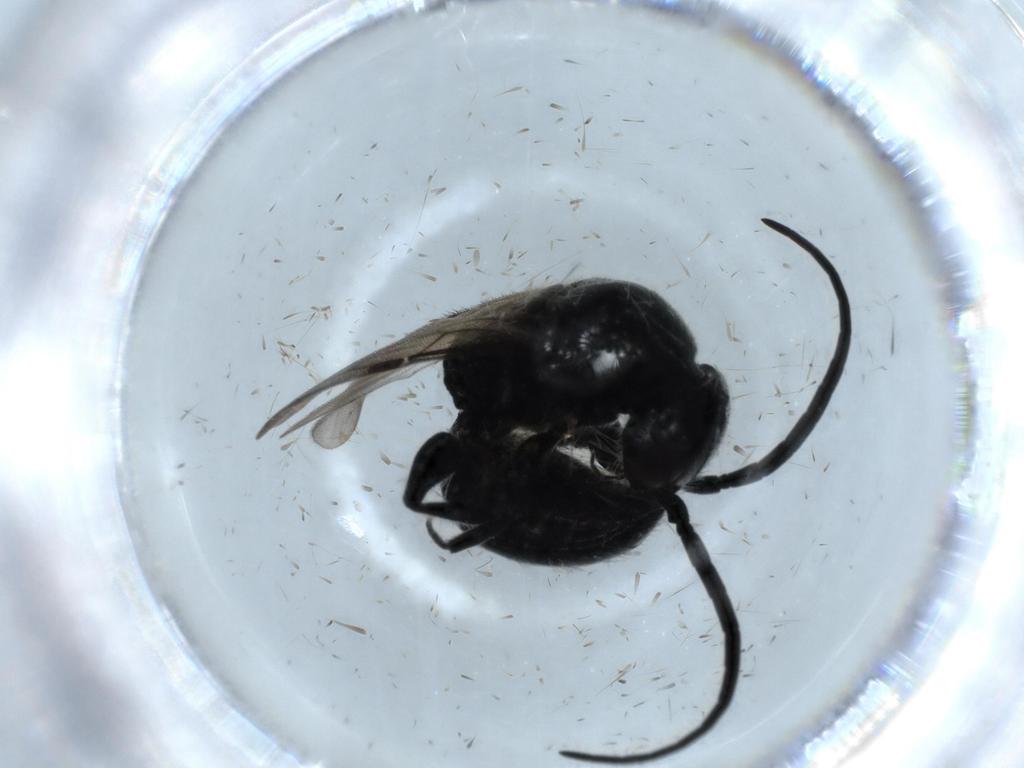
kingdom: Animalia
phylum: Arthropoda
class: Insecta
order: Hymenoptera
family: Bethylidae
